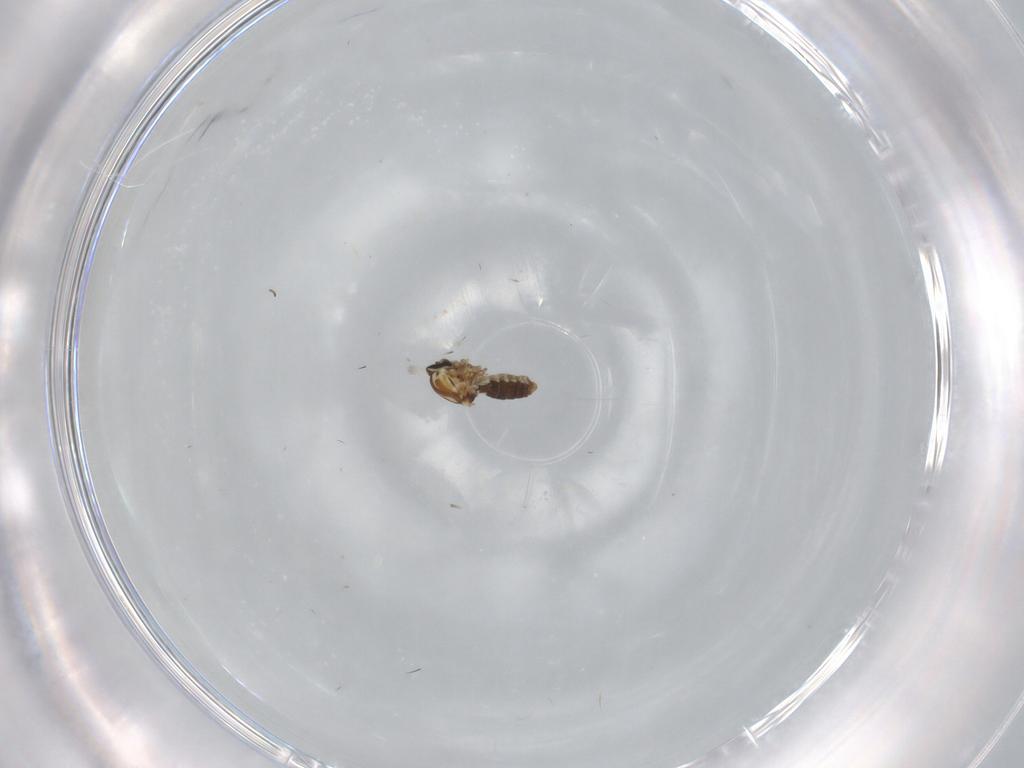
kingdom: Animalia
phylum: Arthropoda
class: Insecta
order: Diptera
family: Ceratopogonidae
